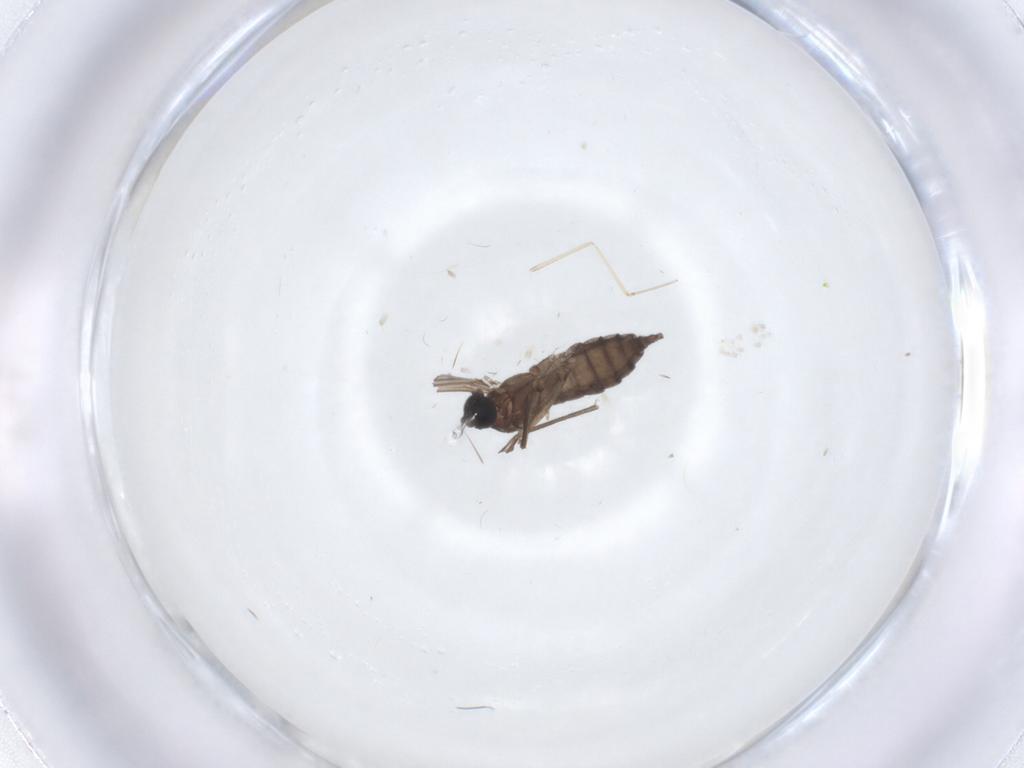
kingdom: Animalia
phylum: Arthropoda
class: Insecta
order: Diptera
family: Sciaridae
